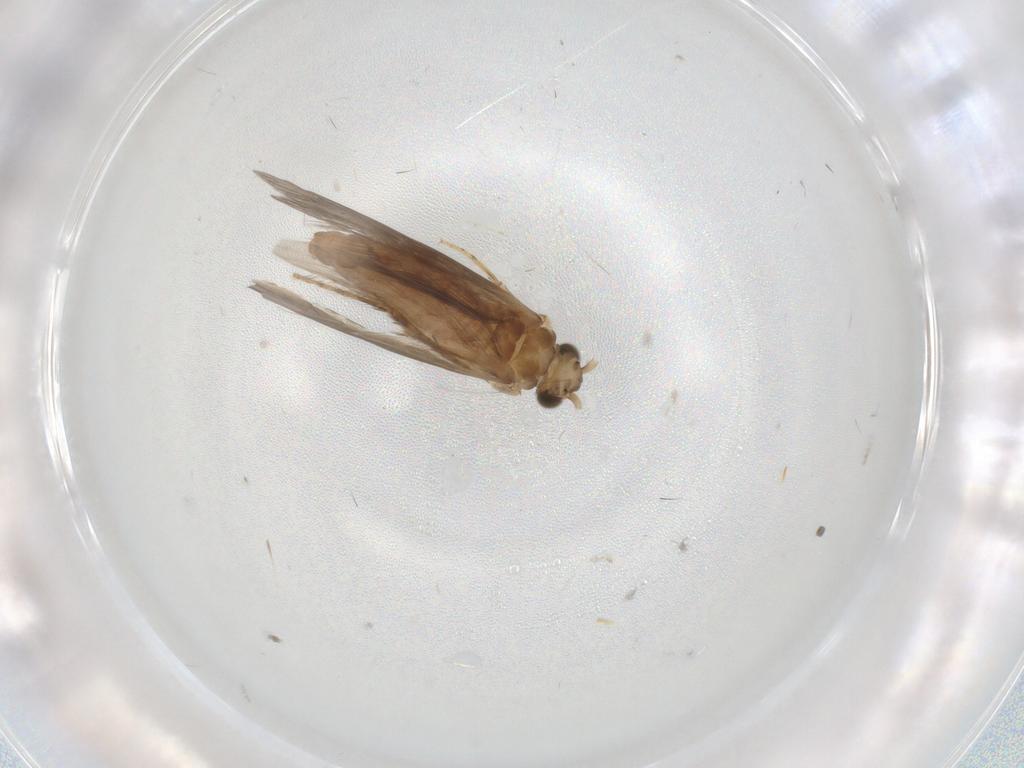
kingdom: Animalia
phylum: Arthropoda
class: Insecta
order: Trichoptera
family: Glossosomatidae
